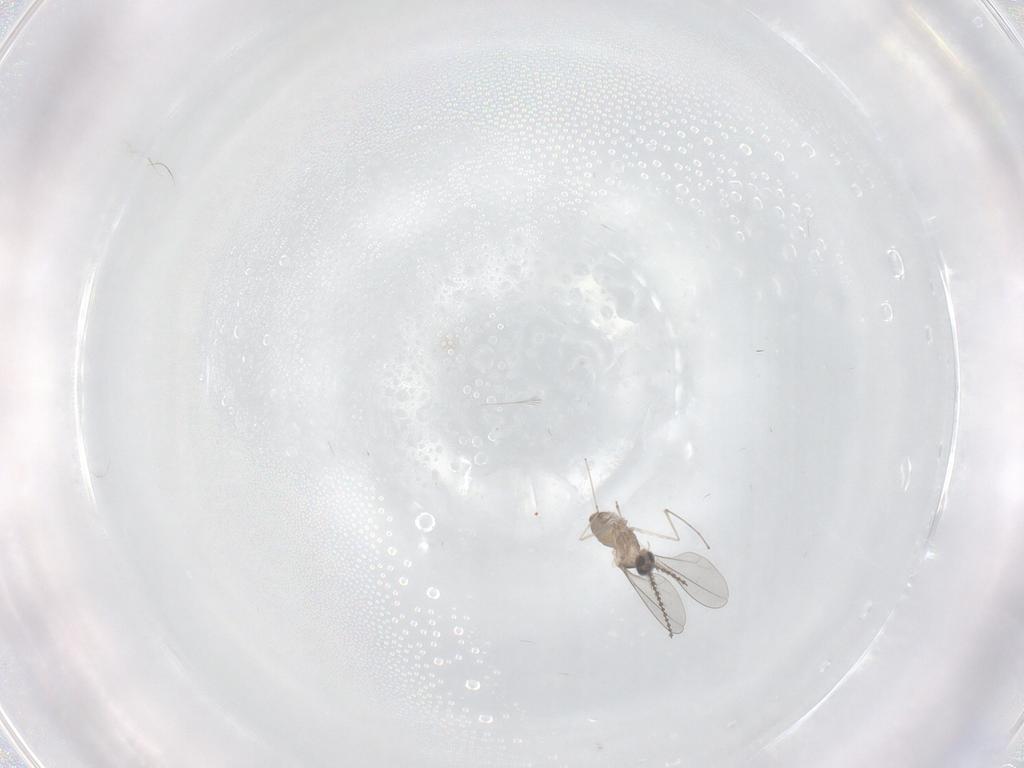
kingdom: Animalia
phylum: Arthropoda
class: Insecta
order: Diptera
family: Cecidomyiidae
